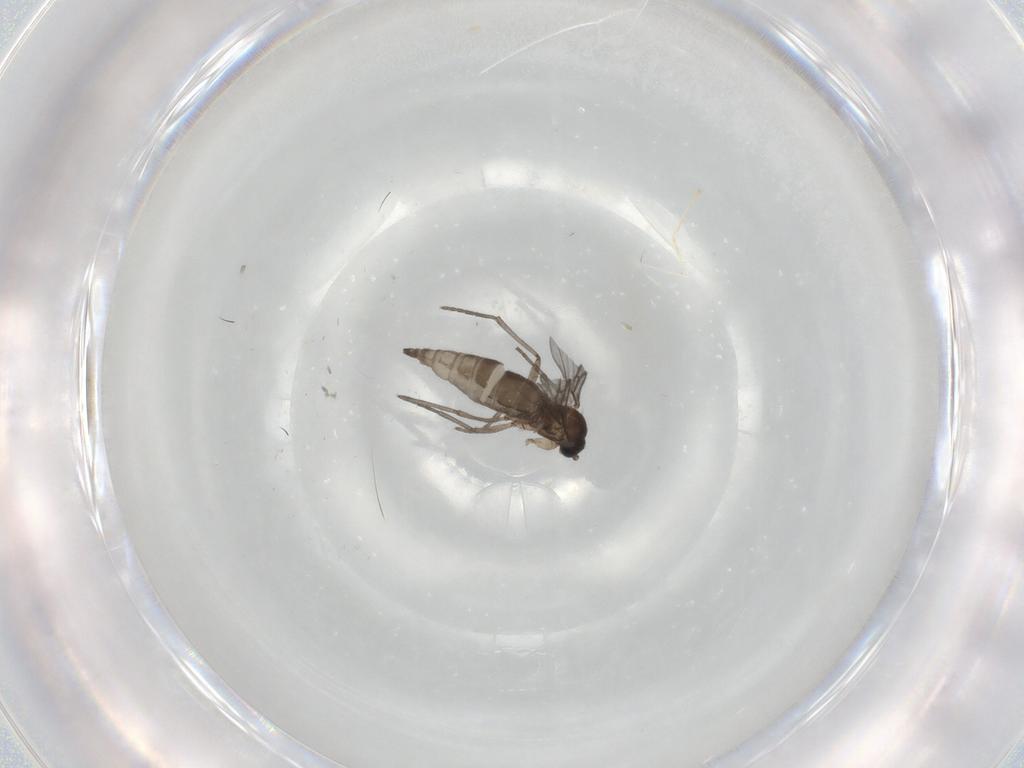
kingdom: Animalia
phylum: Arthropoda
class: Insecta
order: Diptera
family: Sciaridae
